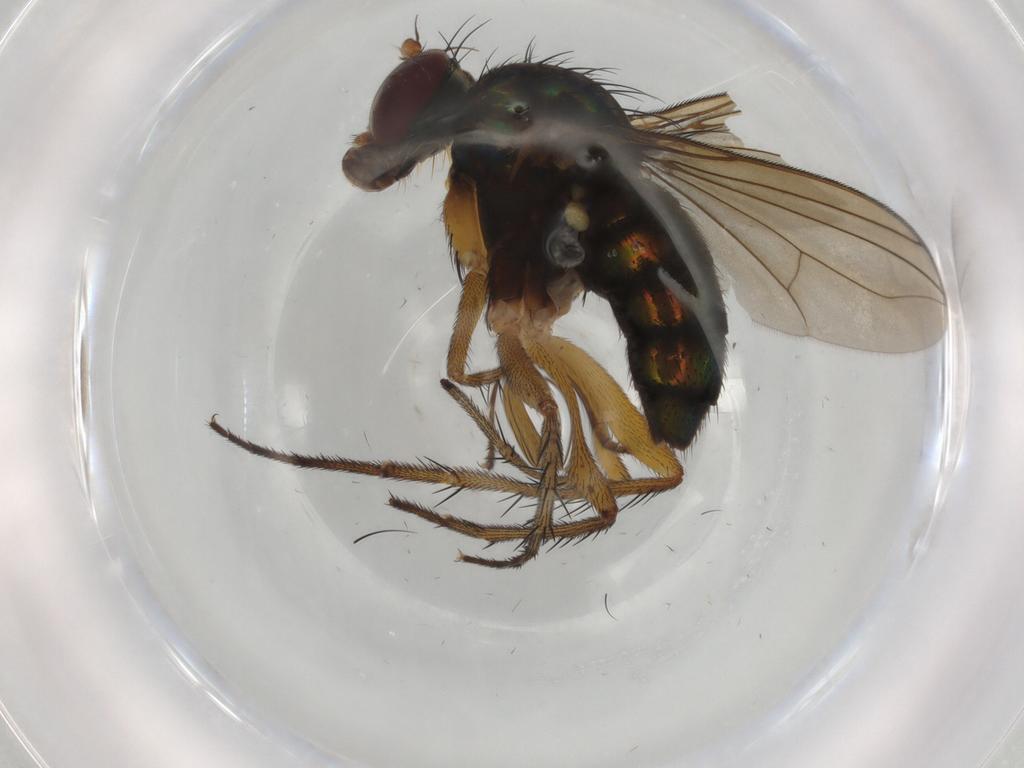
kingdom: Animalia
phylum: Arthropoda
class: Insecta
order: Diptera
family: Dolichopodidae
